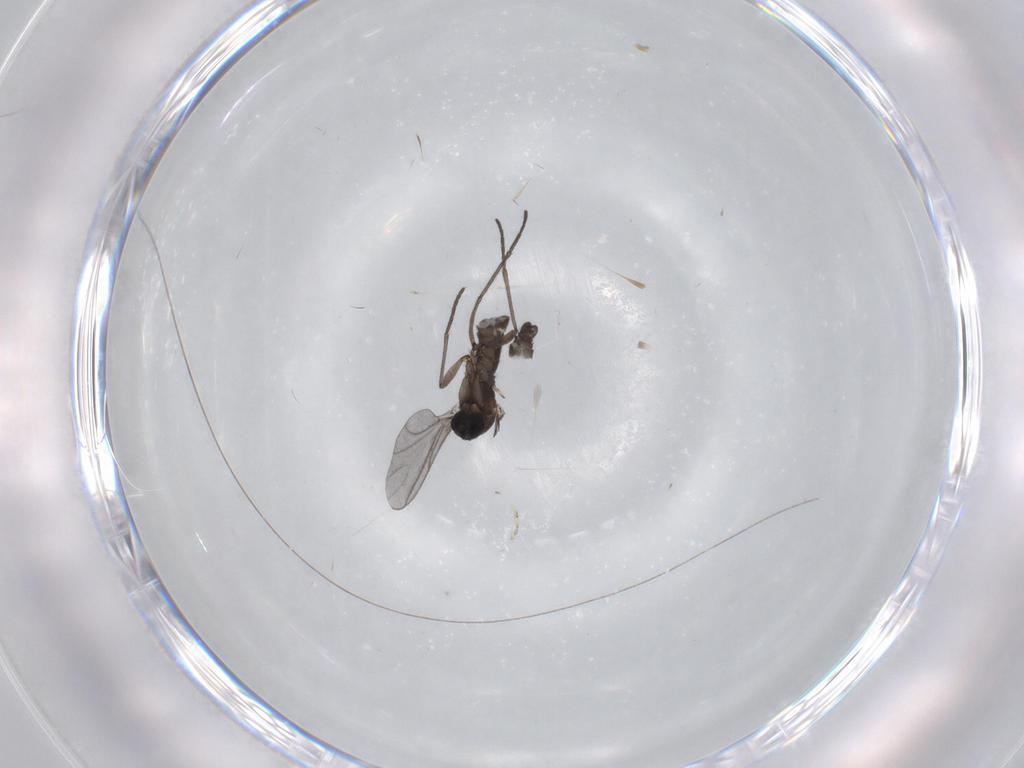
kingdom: Animalia
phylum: Arthropoda
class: Insecta
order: Diptera
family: Sciaridae
